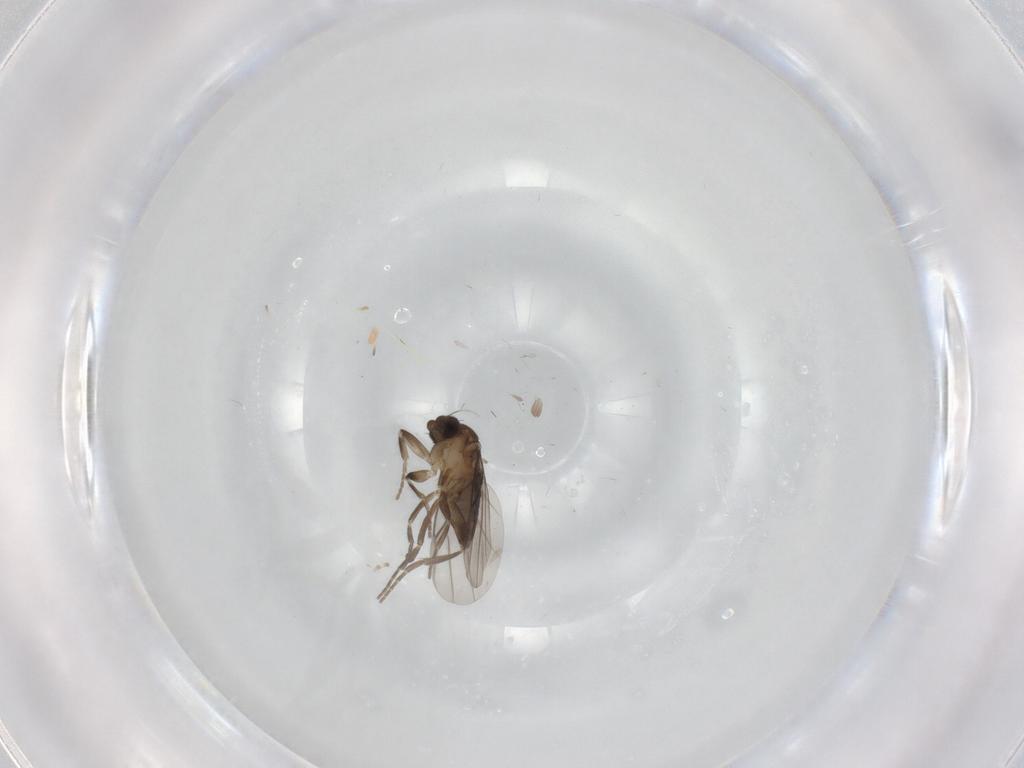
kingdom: Animalia
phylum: Arthropoda
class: Insecta
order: Diptera
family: Phoridae
